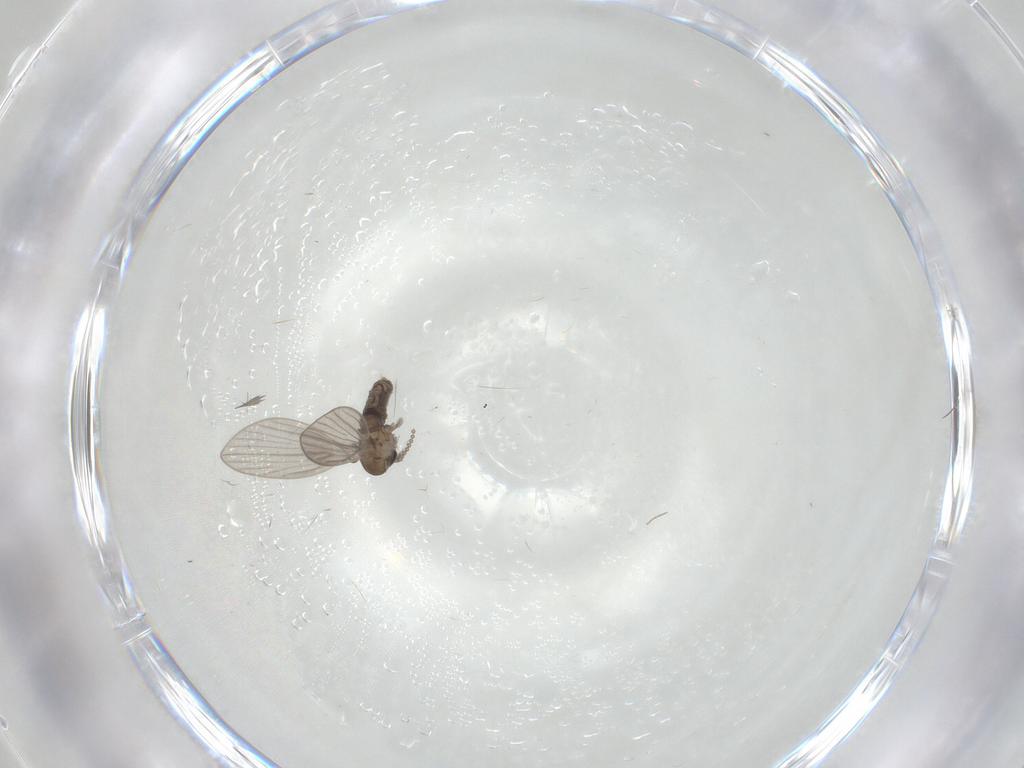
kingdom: Animalia
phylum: Arthropoda
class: Insecta
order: Diptera
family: Psychodidae
